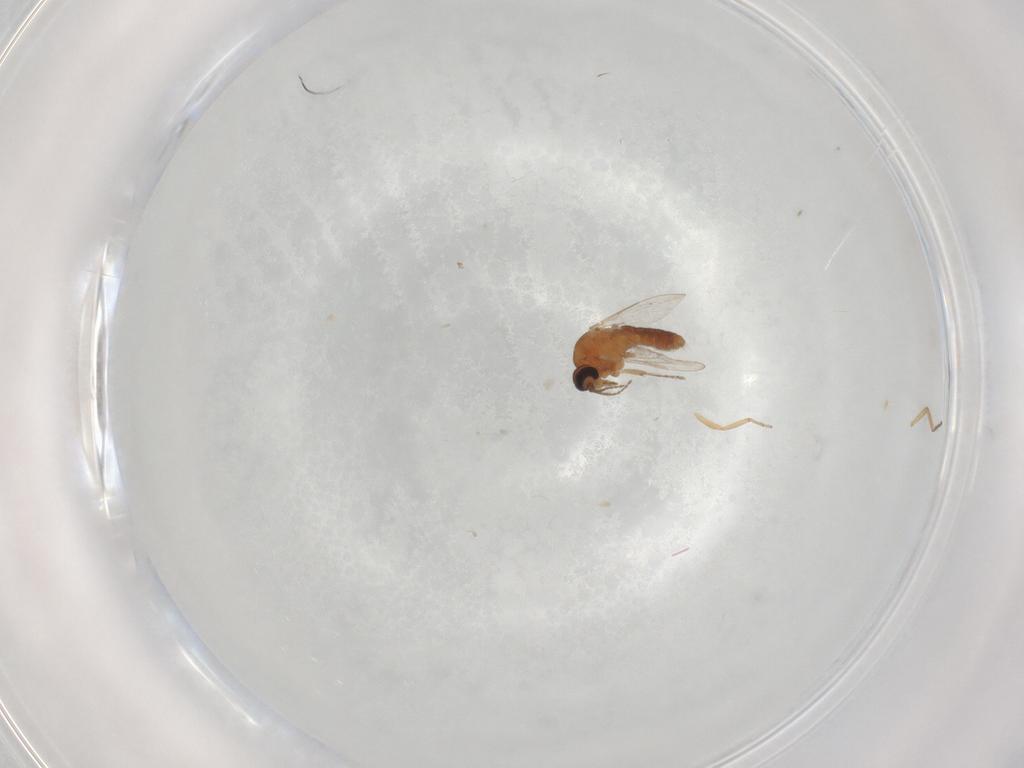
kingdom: Animalia
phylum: Arthropoda
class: Insecta
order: Diptera
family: Ceratopogonidae
